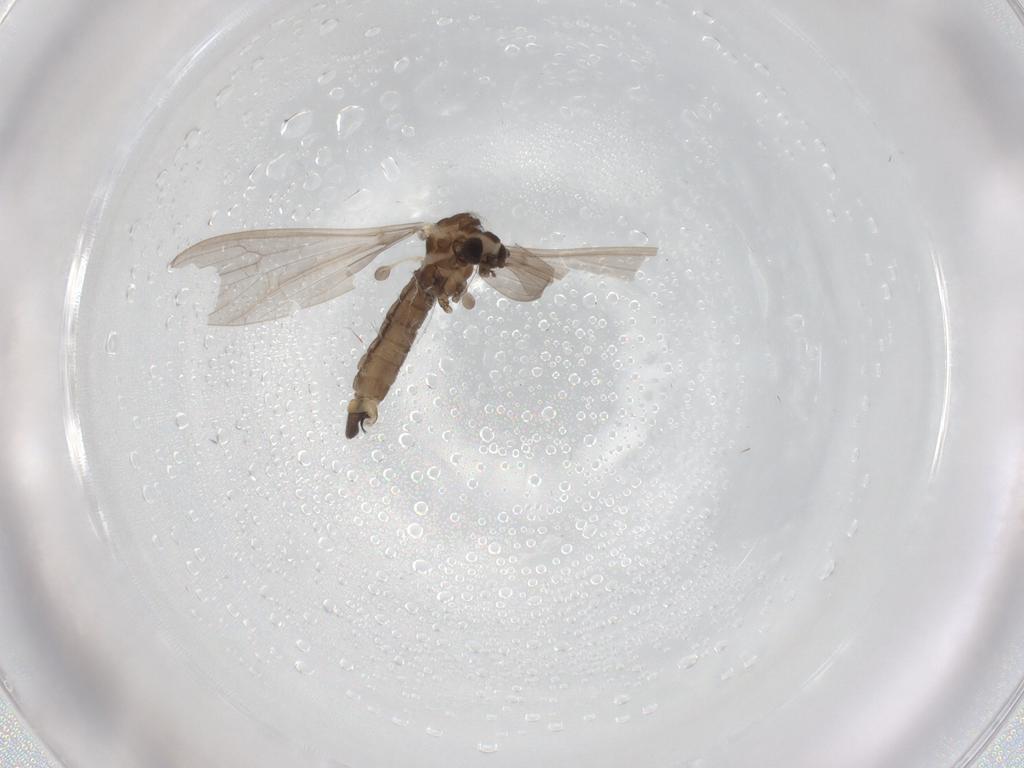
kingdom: Animalia
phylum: Arthropoda
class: Insecta
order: Diptera
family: Limoniidae
